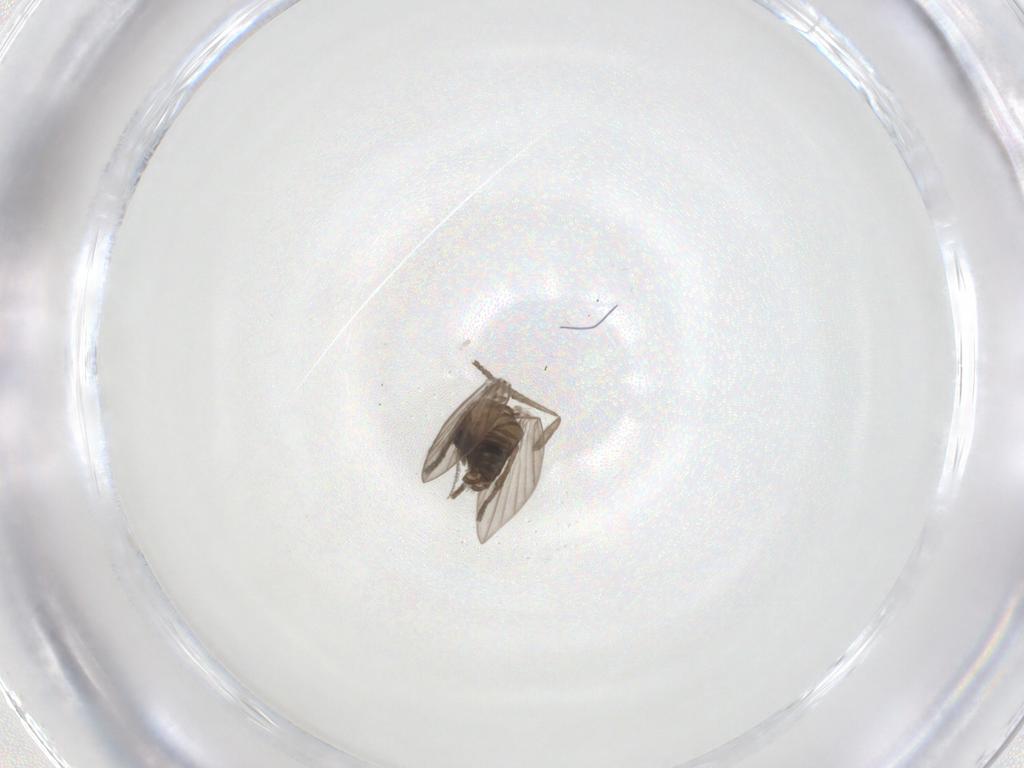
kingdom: Animalia
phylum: Arthropoda
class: Insecta
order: Diptera
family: Psychodidae
